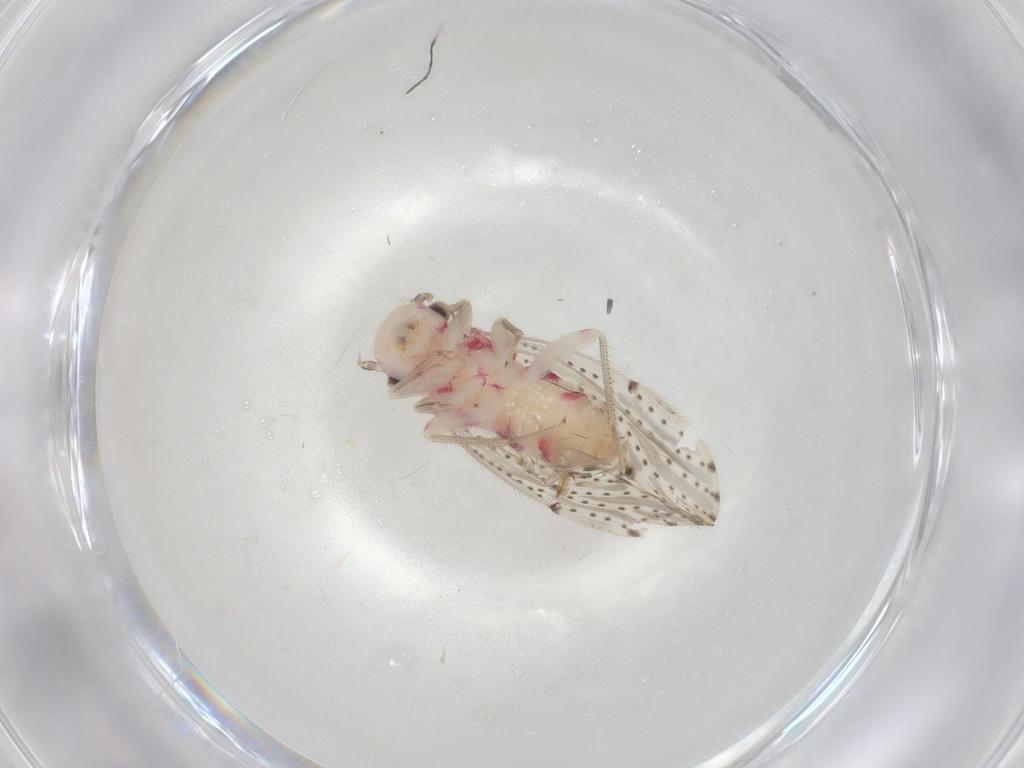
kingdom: Animalia
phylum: Arthropoda
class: Insecta
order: Psocodea
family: Hemipsocidae
